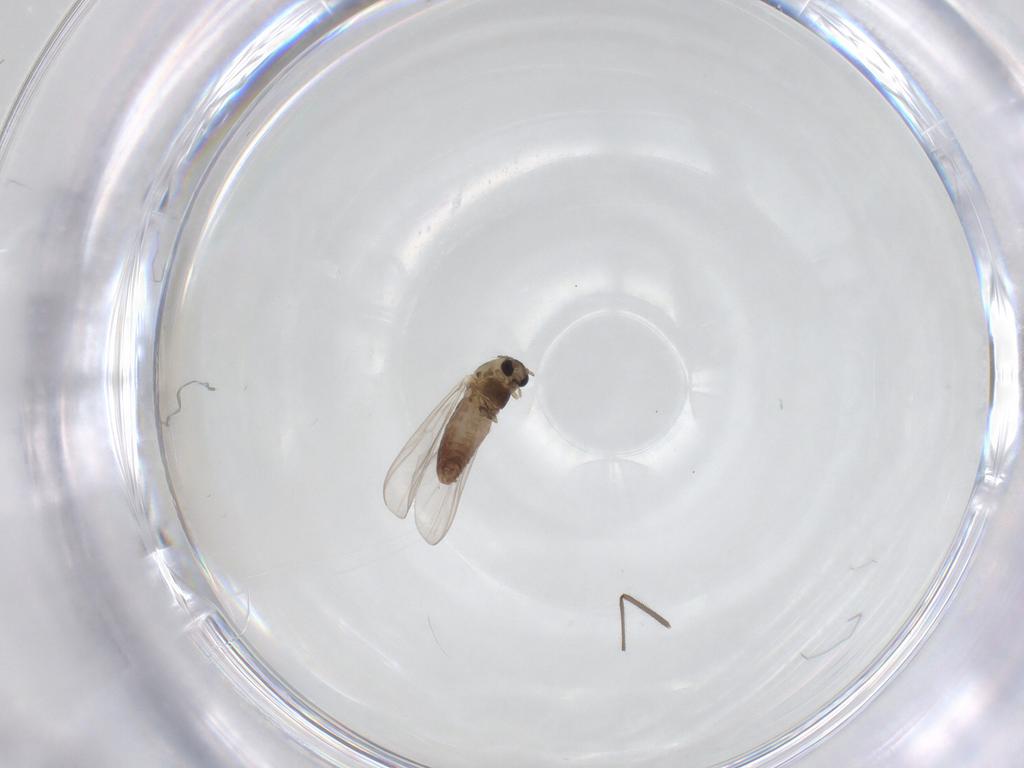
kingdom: Animalia
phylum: Arthropoda
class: Insecta
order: Diptera
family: Chironomidae
